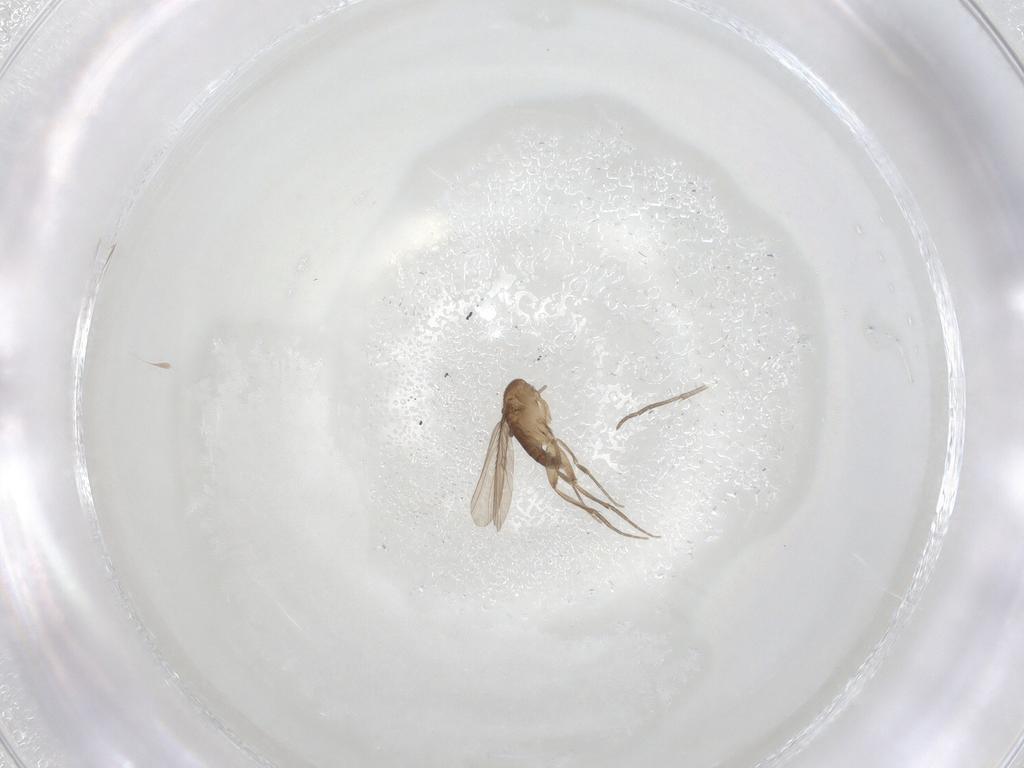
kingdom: Animalia
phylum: Arthropoda
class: Insecta
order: Diptera
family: Phoridae
